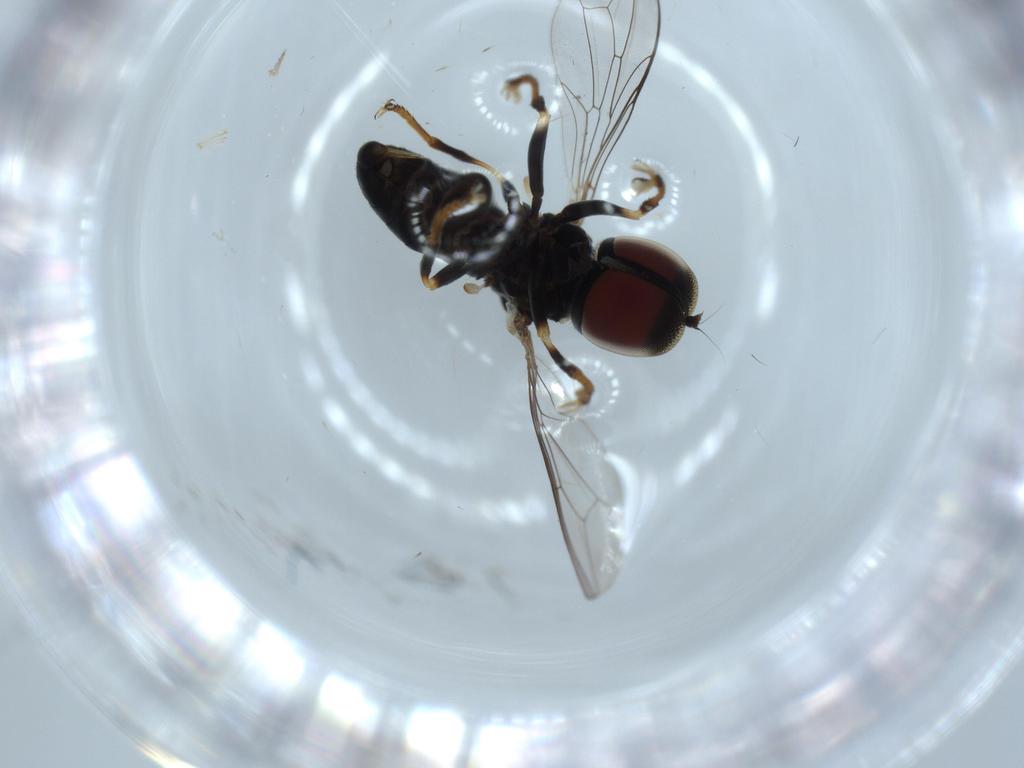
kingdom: Animalia
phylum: Arthropoda
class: Insecta
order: Diptera
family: Pipunculidae
